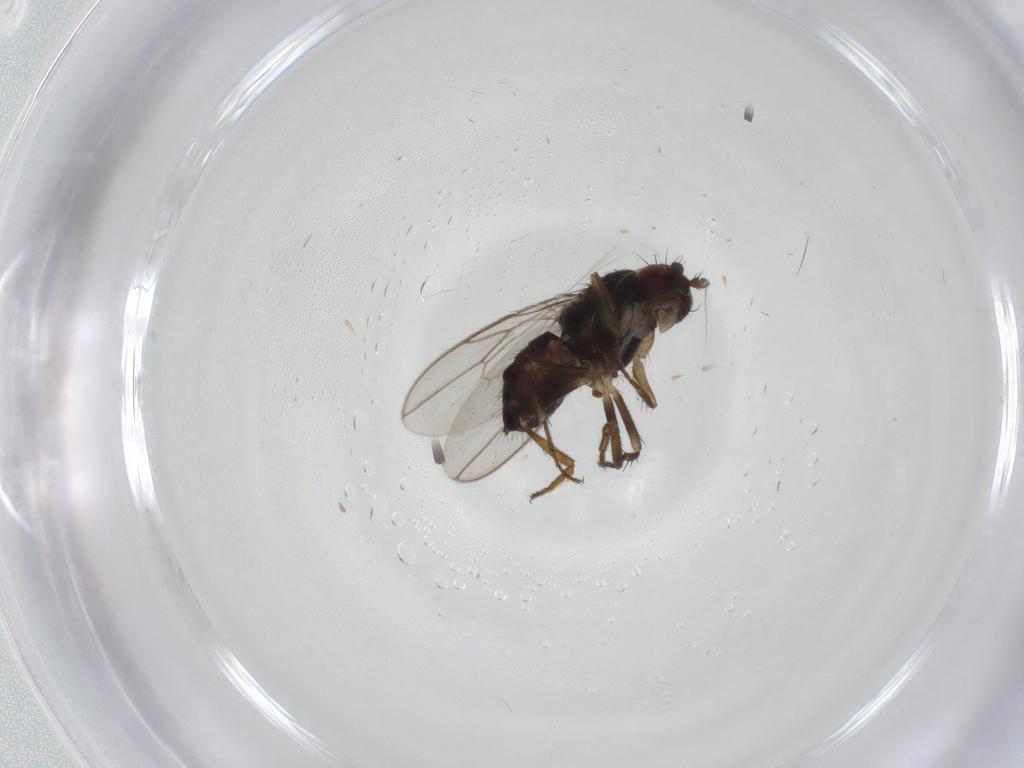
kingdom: Animalia
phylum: Arthropoda
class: Insecta
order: Diptera
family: Sphaeroceridae
